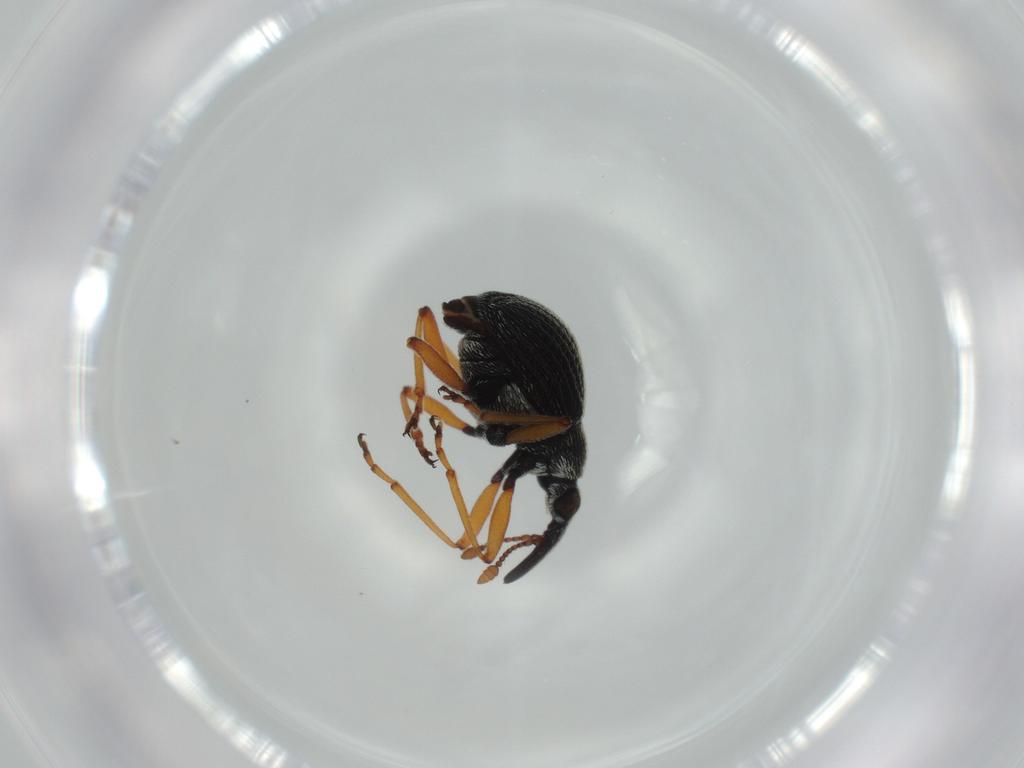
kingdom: Animalia
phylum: Arthropoda
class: Insecta
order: Coleoptera
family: Brentidae
